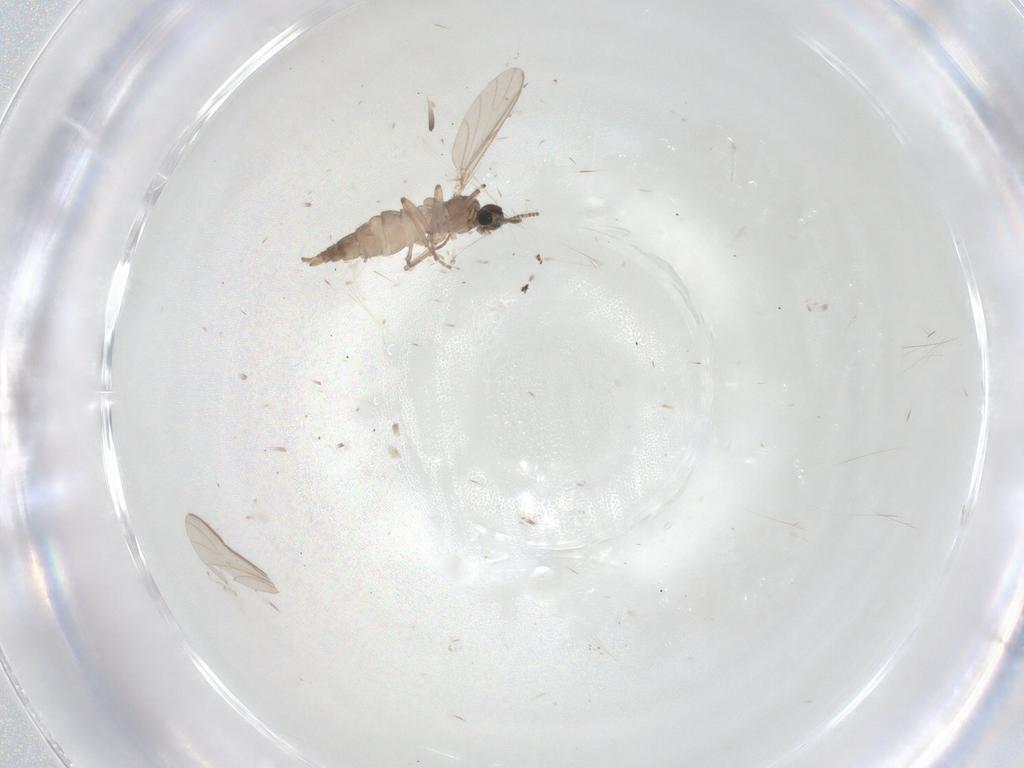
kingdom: Animalia
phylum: Arthropoda
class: Insecta
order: Diptera
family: Sciaridae
